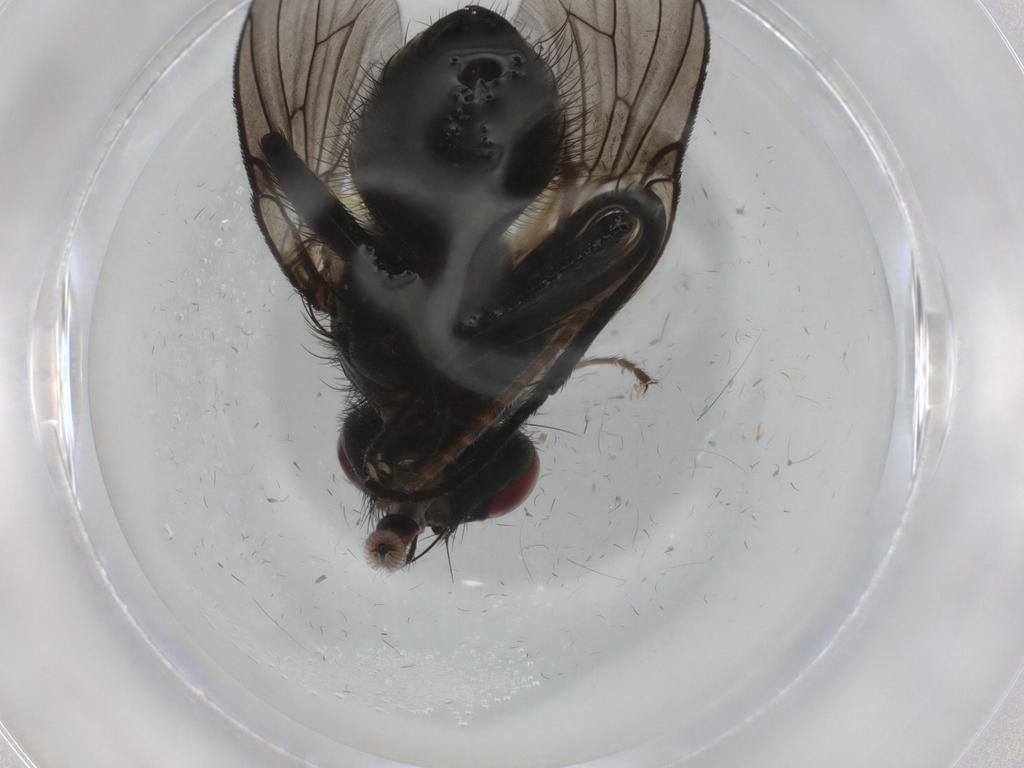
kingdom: Animalia
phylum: Arthropoda
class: Insecta
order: Diptera
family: Muscidae
